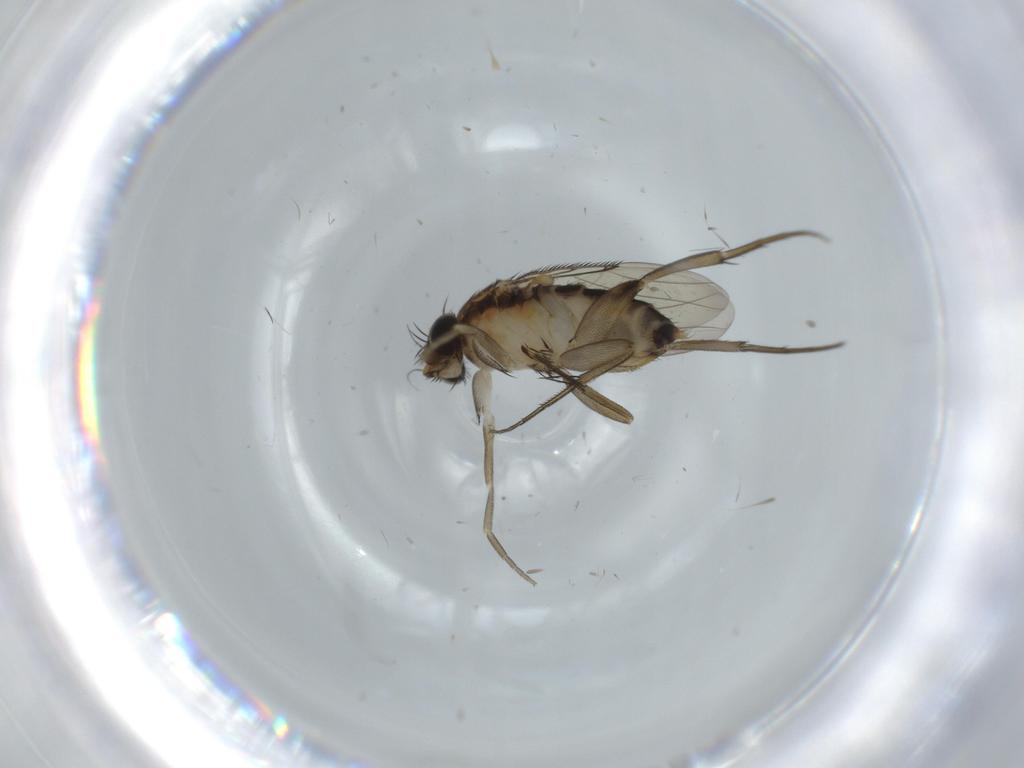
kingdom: Animalia
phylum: Arthropoda
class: Insecta
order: Diptera
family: Phoridae
